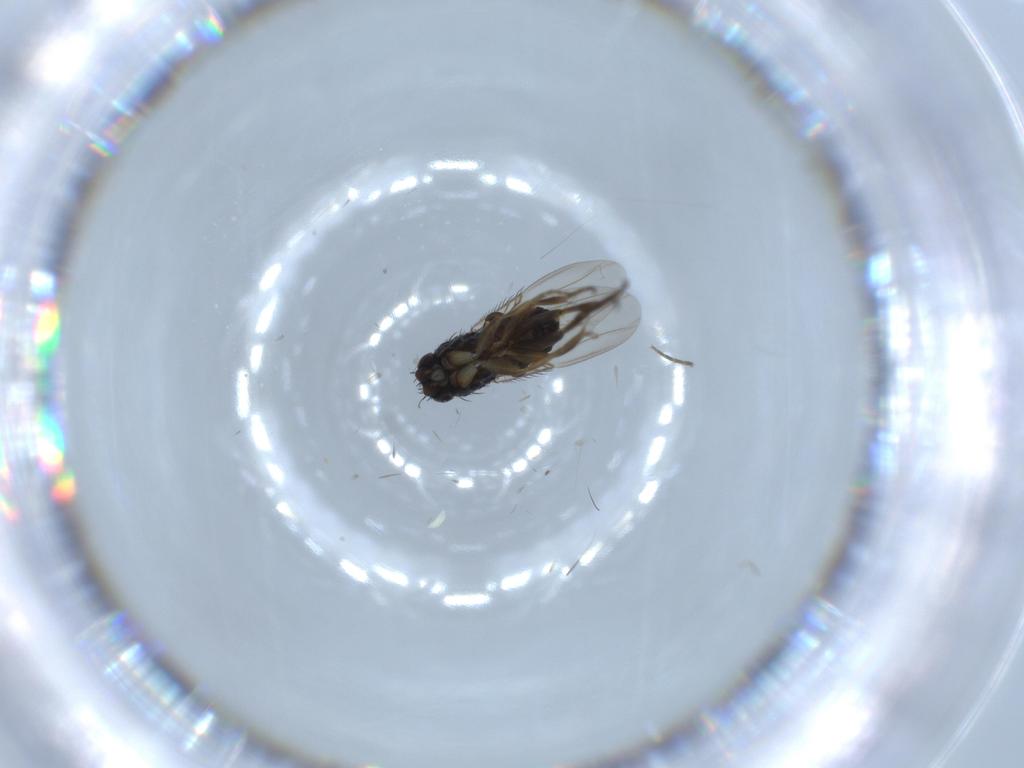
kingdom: Animalia
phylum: Arthropoda
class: Insecta
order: Diptera
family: Phoridae
